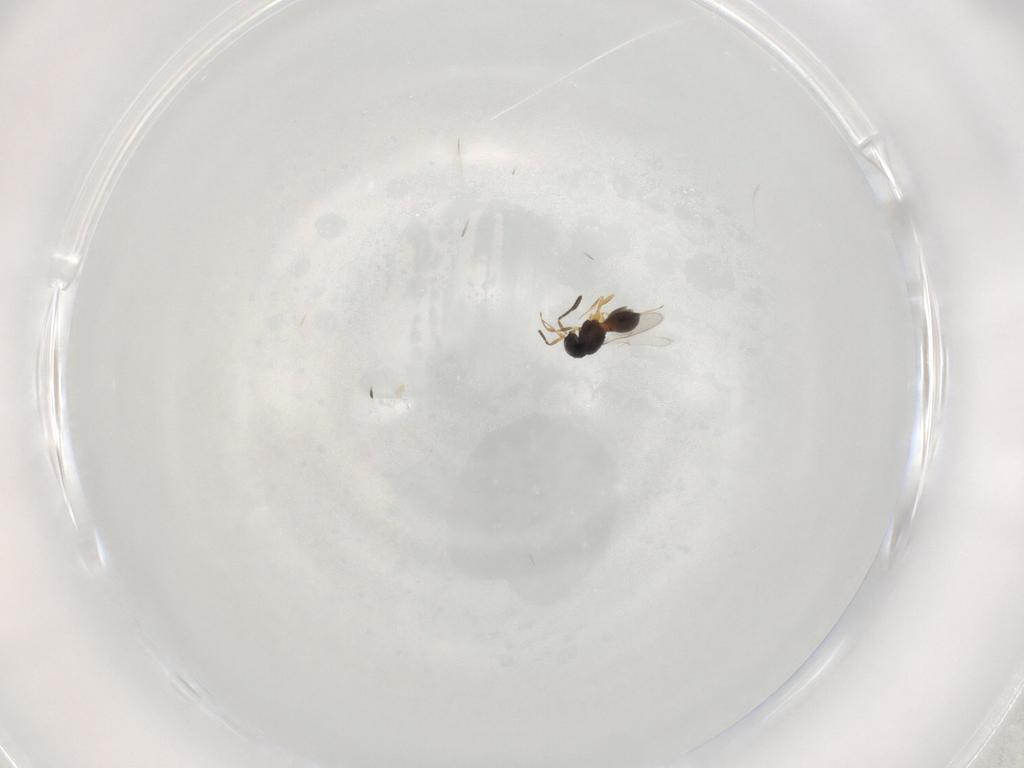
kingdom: Animalia
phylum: Arthropoda
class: Insecta
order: Hymenoptera
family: Scelionidae
